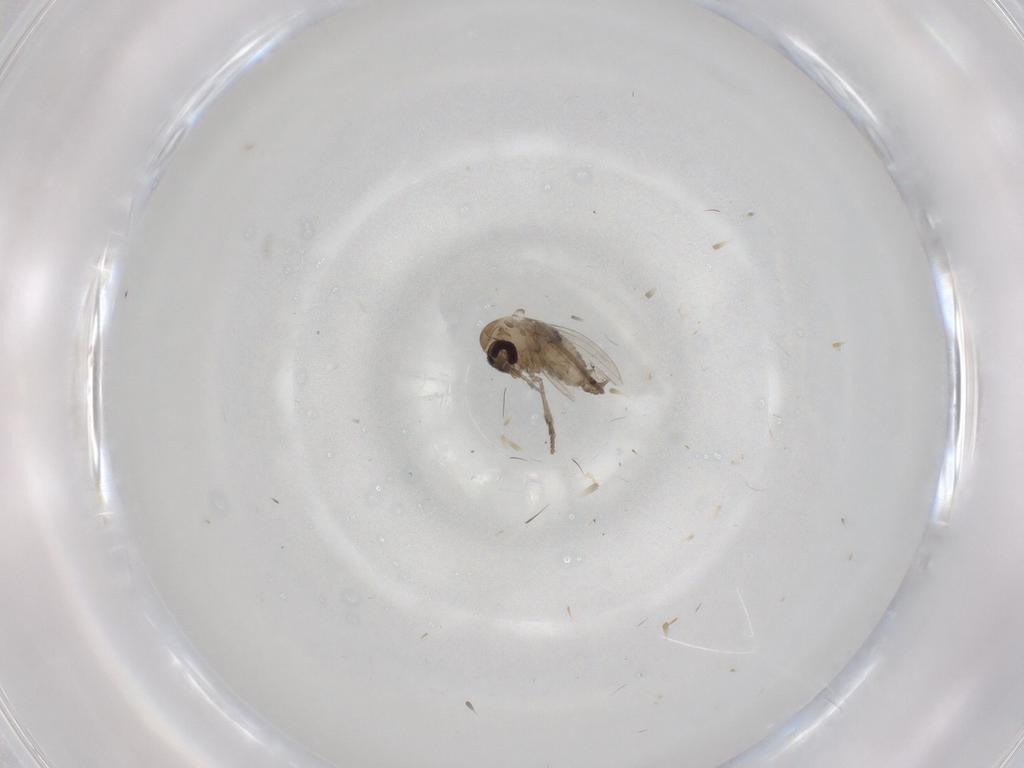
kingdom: Animalia
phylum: Arthropoda
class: Insecta
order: Diptera
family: Psychodidae
